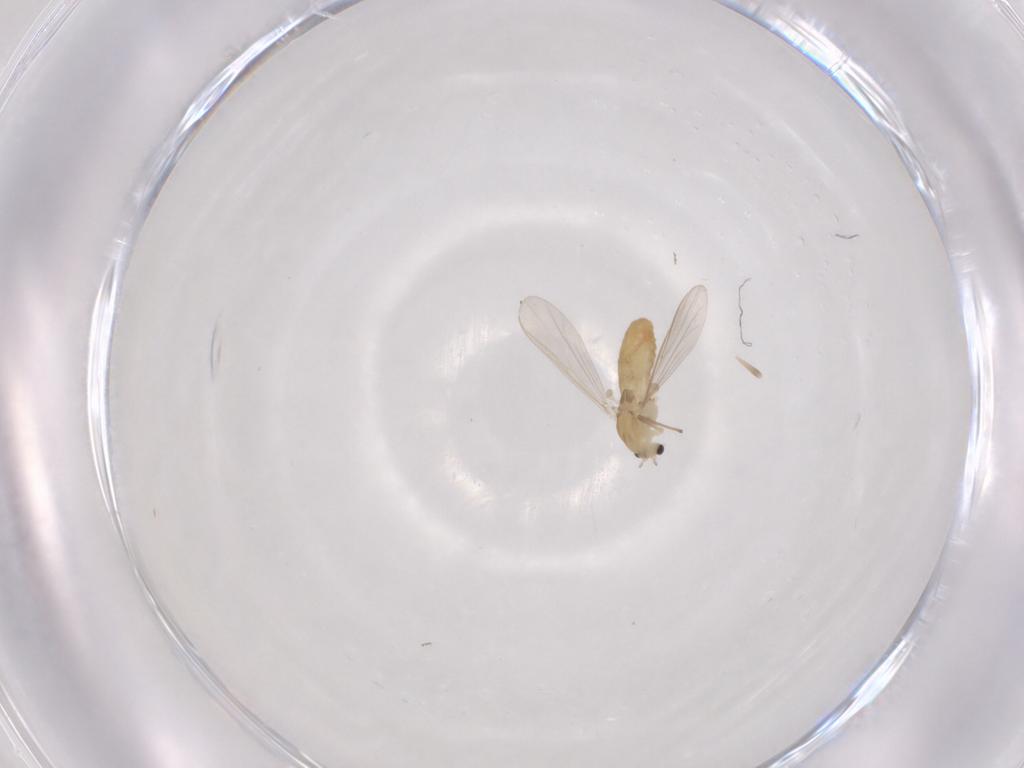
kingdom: Animalia
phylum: Arthropoda
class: Insecta
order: Diptera
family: Chironomidae
